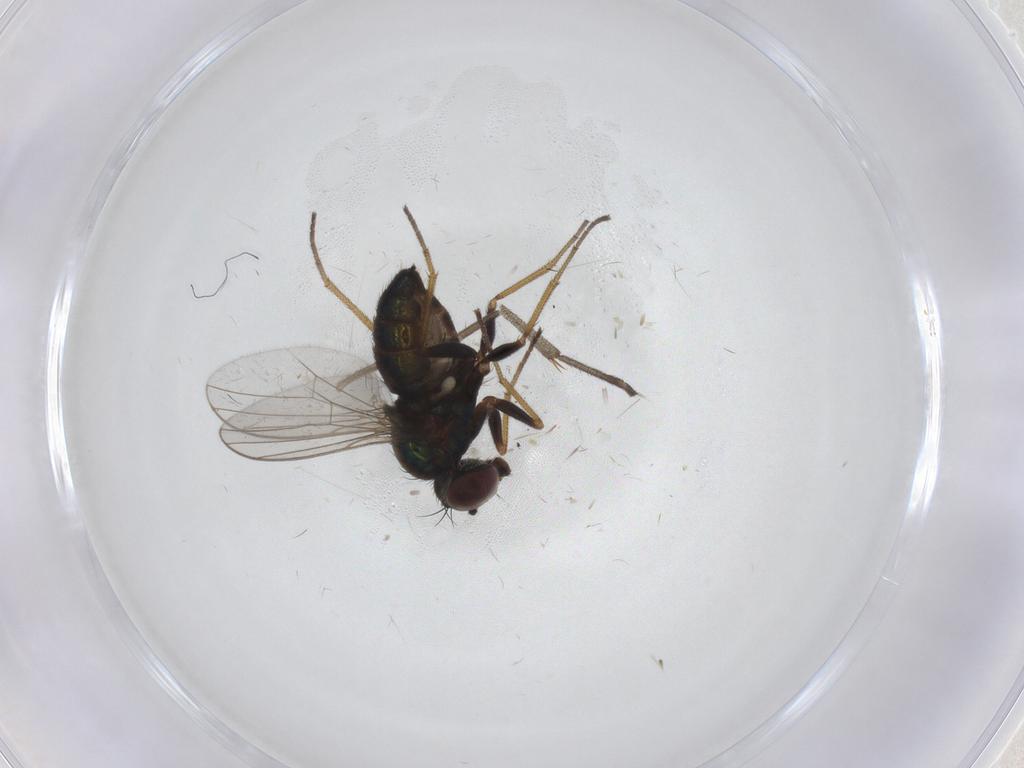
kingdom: Animalia
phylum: Arthropoda
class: Insecta
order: Diptera
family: Dolichopodidae
